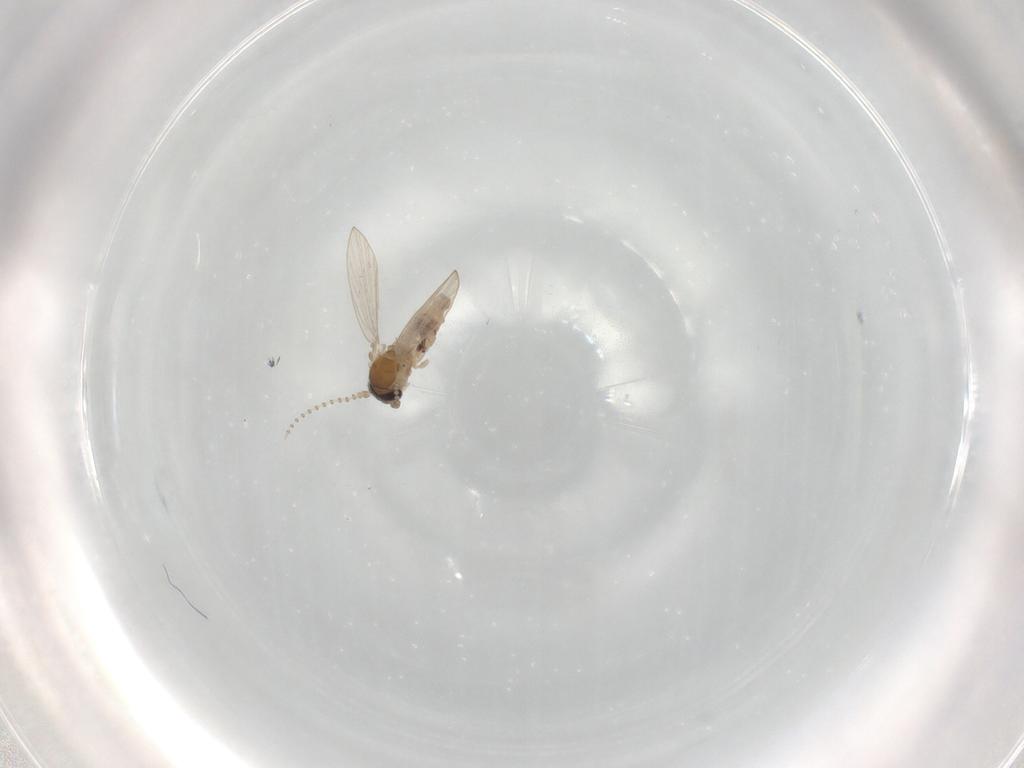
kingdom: Animalia
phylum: Arthropoda
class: Insecta
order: Diptera
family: Psychodidae
